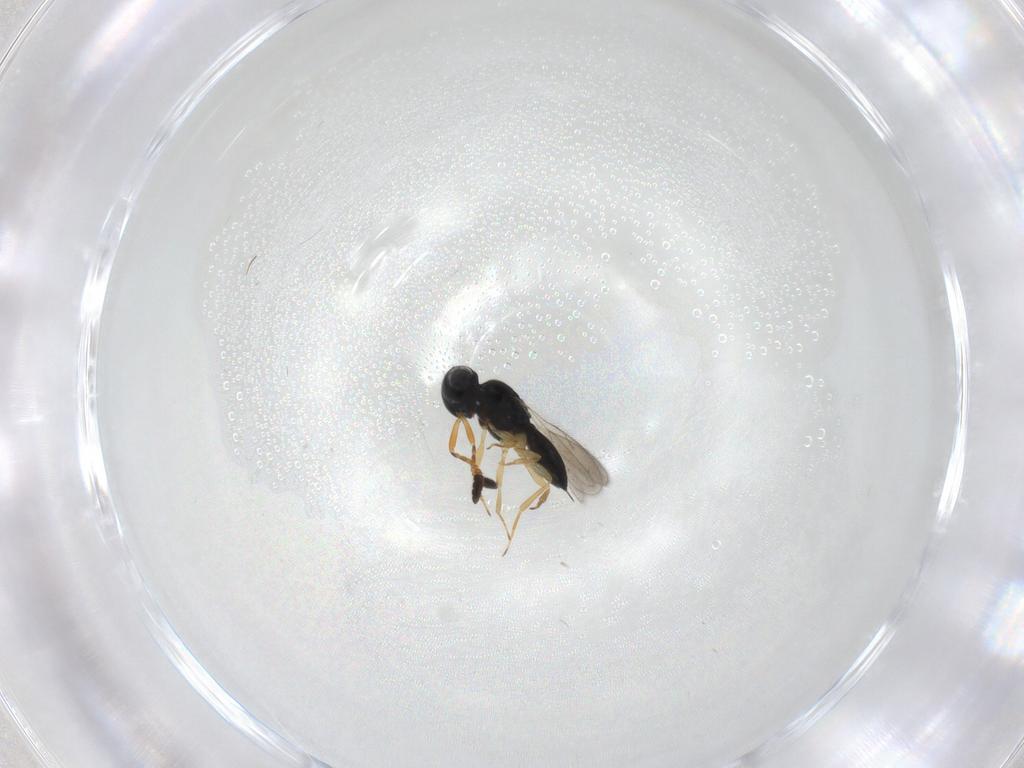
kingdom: Animalia
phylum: Arthropoda
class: Insecta
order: Hymenoptera
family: Scelionidae
